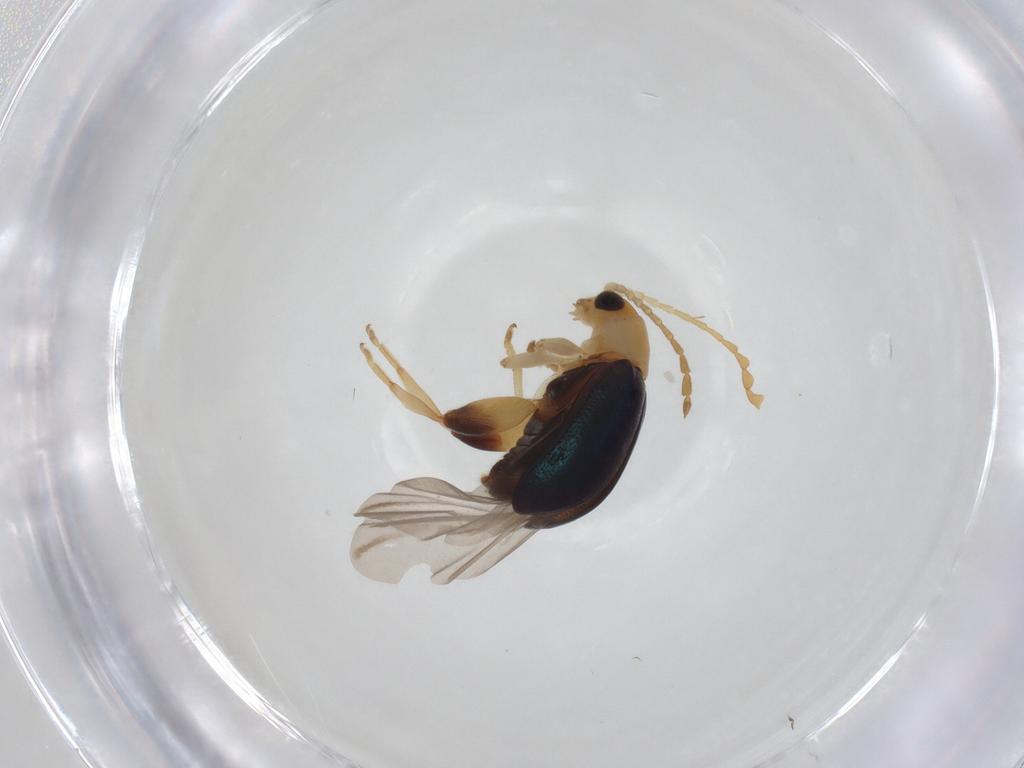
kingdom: Animalia
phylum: Arthropoda
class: Insecta
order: Coleoptera
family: Chrysomelidae
